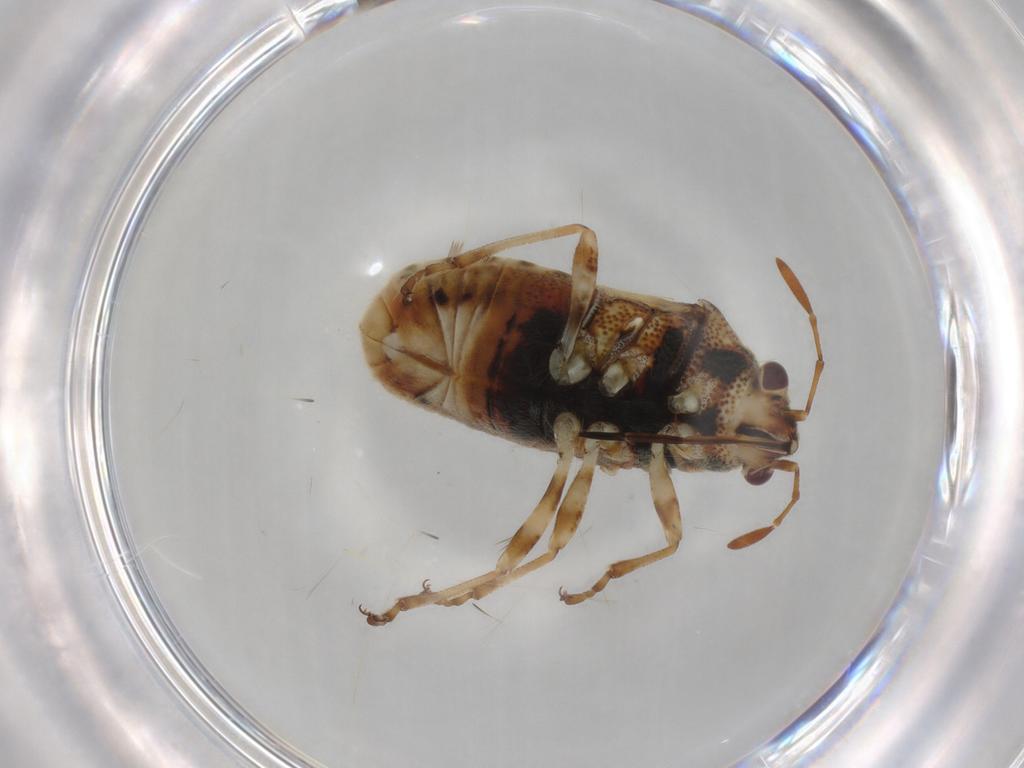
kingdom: Animalia
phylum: Arthropoda
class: Insecta
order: Hemiptera
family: Lygaeidae
